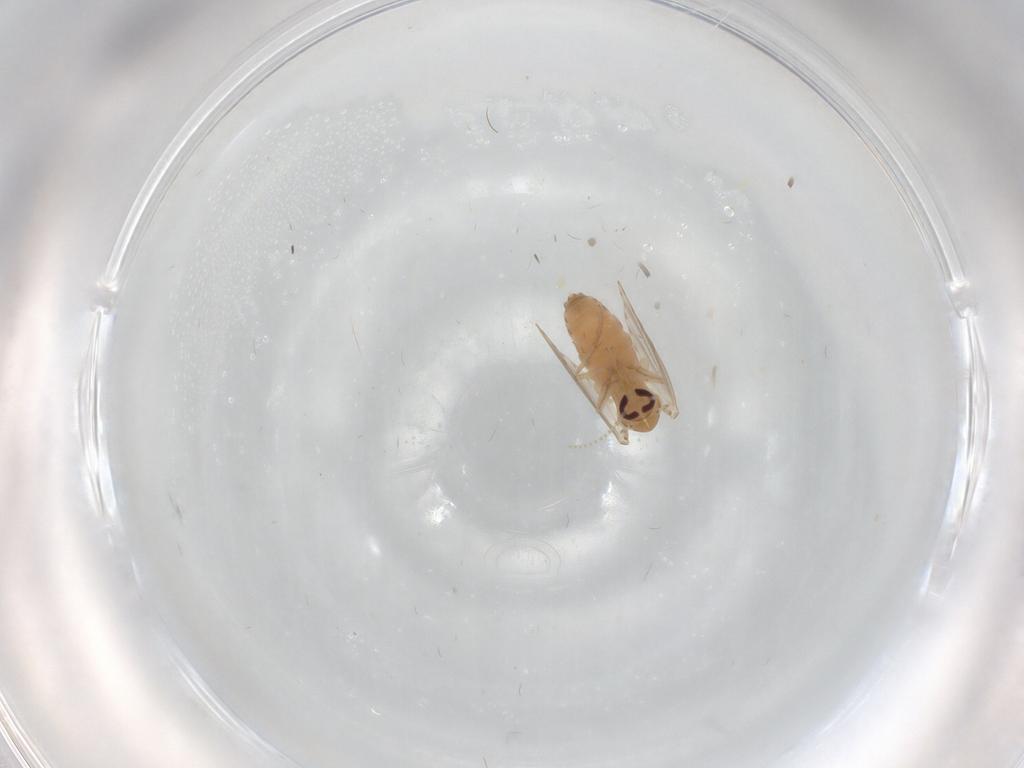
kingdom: Animalia
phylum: Arthropoda
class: Insecta
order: Diptera
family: Psychodidae
